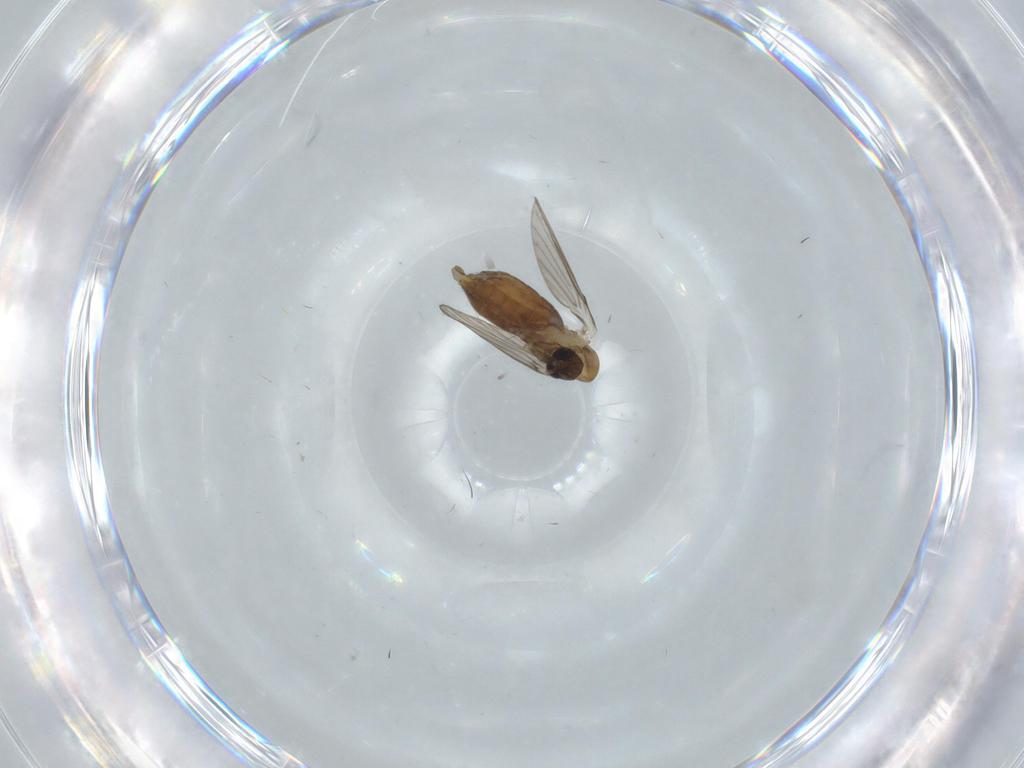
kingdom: Animalia
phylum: Arthropoda
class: Insecta
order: Diptera
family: Psychodidae
